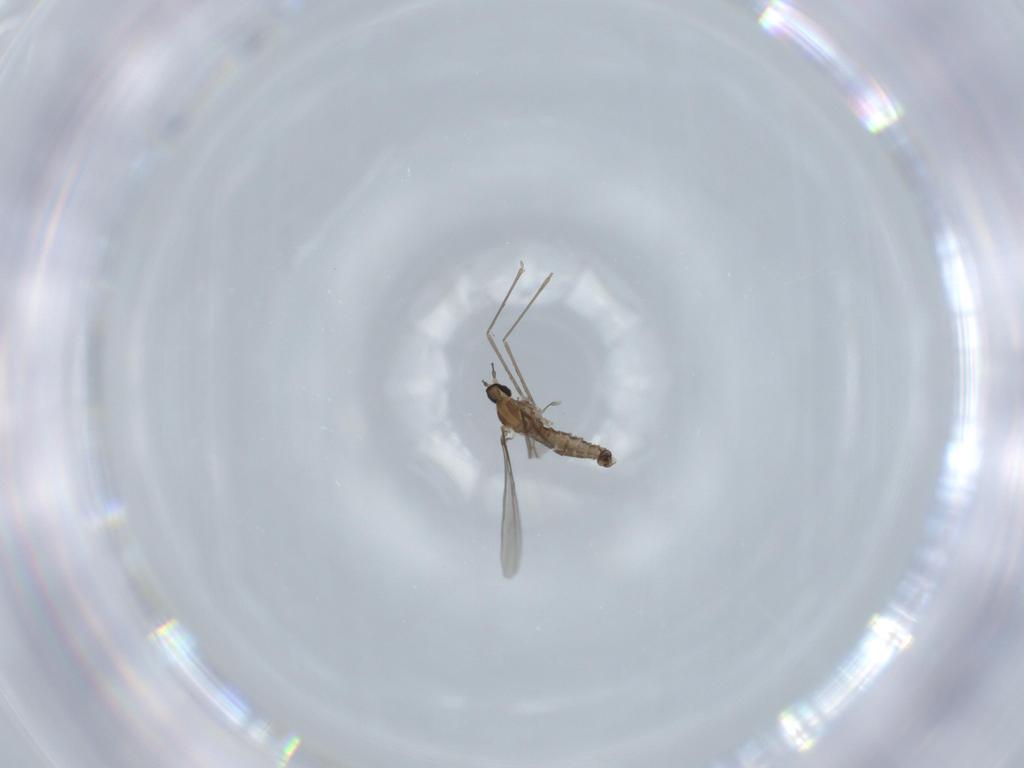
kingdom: Animalia
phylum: Arthropoda
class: Insecta
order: Diptera
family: Cecidomyiidae
